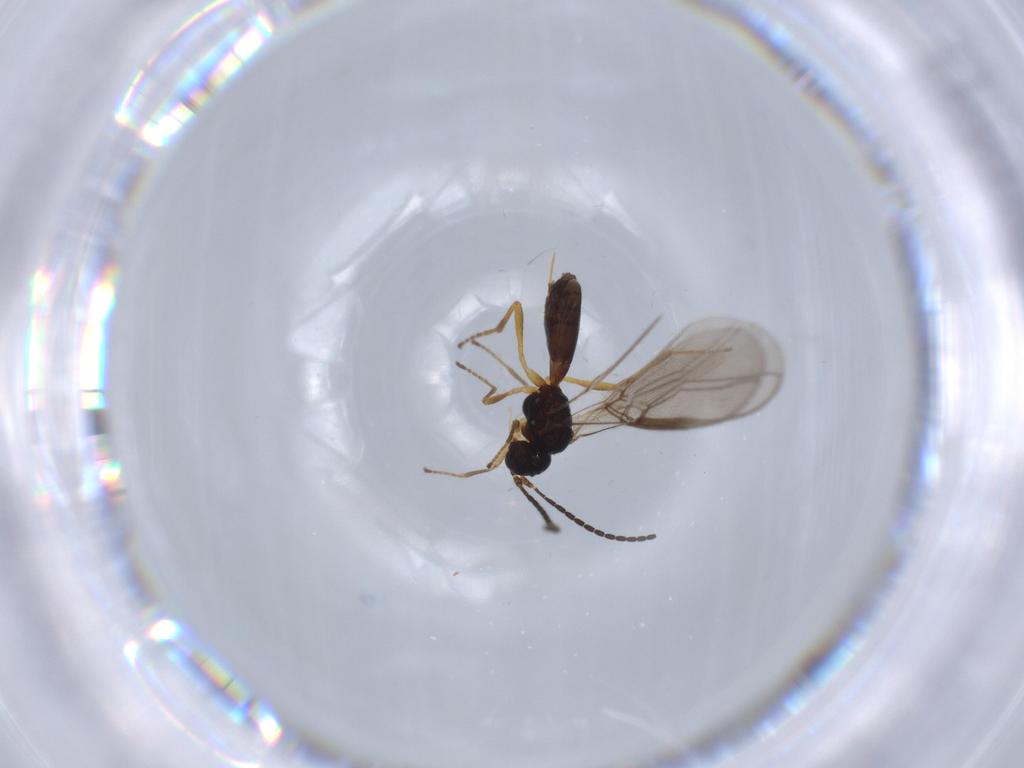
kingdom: Animalia
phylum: Arthropoda
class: Insecta
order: Hymenoptera
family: Braconidae
